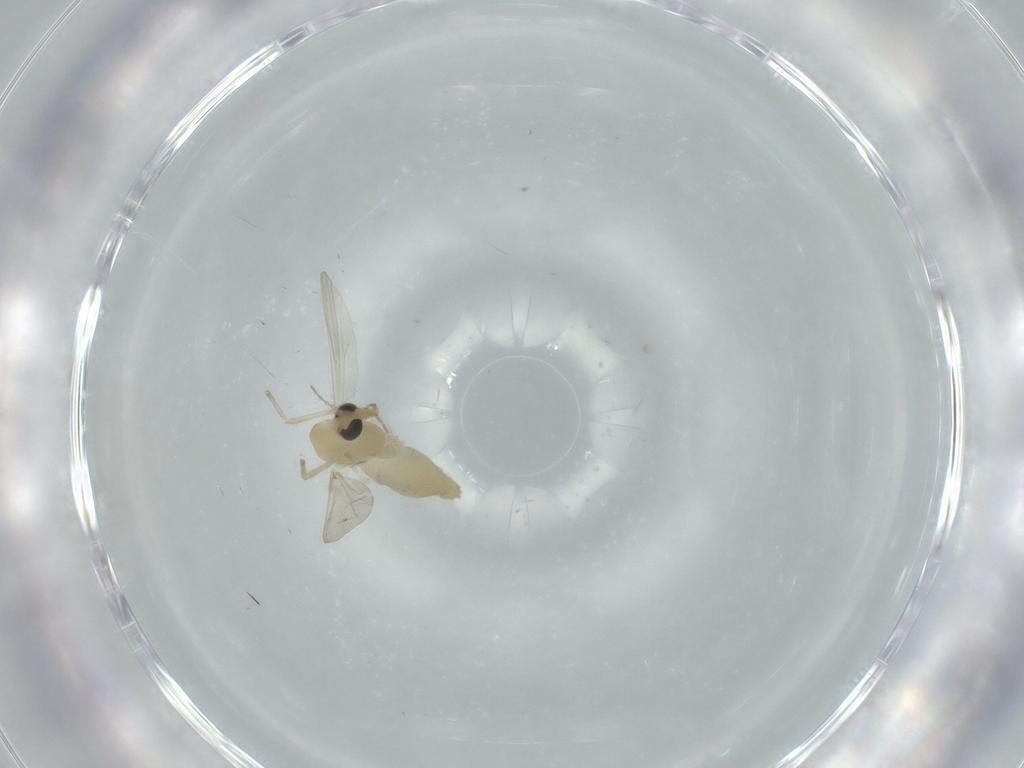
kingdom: Animalia
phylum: Arthropoda
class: Insecta
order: Diptera
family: Chironomidae
